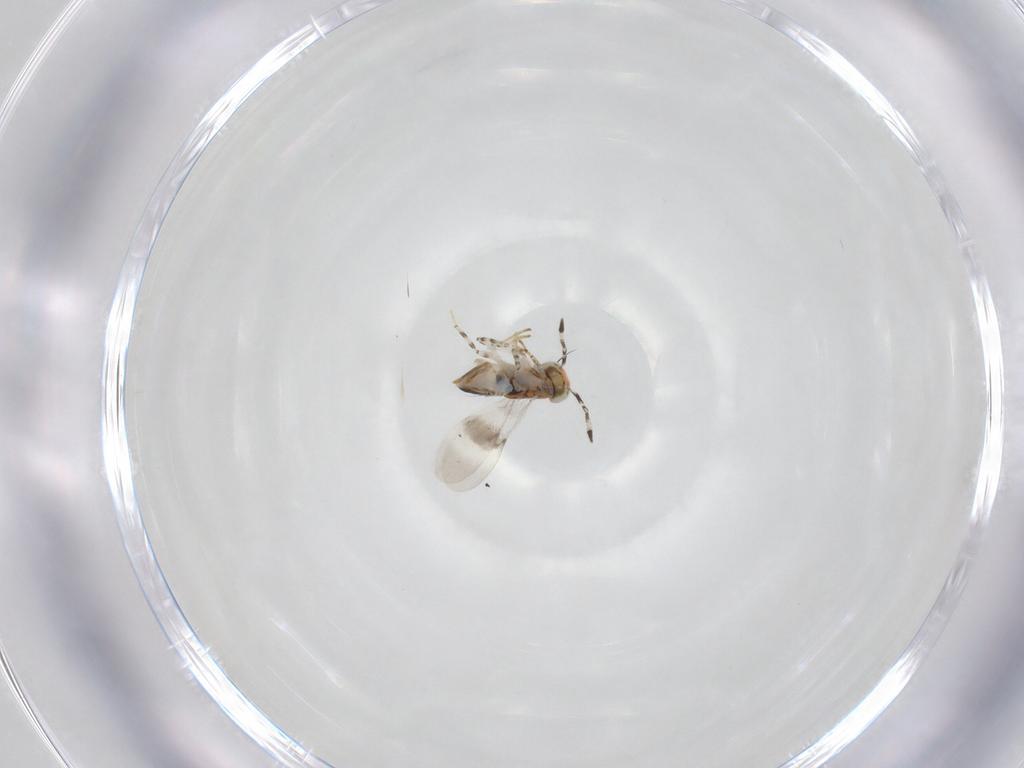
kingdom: Animalia
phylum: Arthropoda
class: Insecta
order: Hymenoptera
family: Encyrtidae
